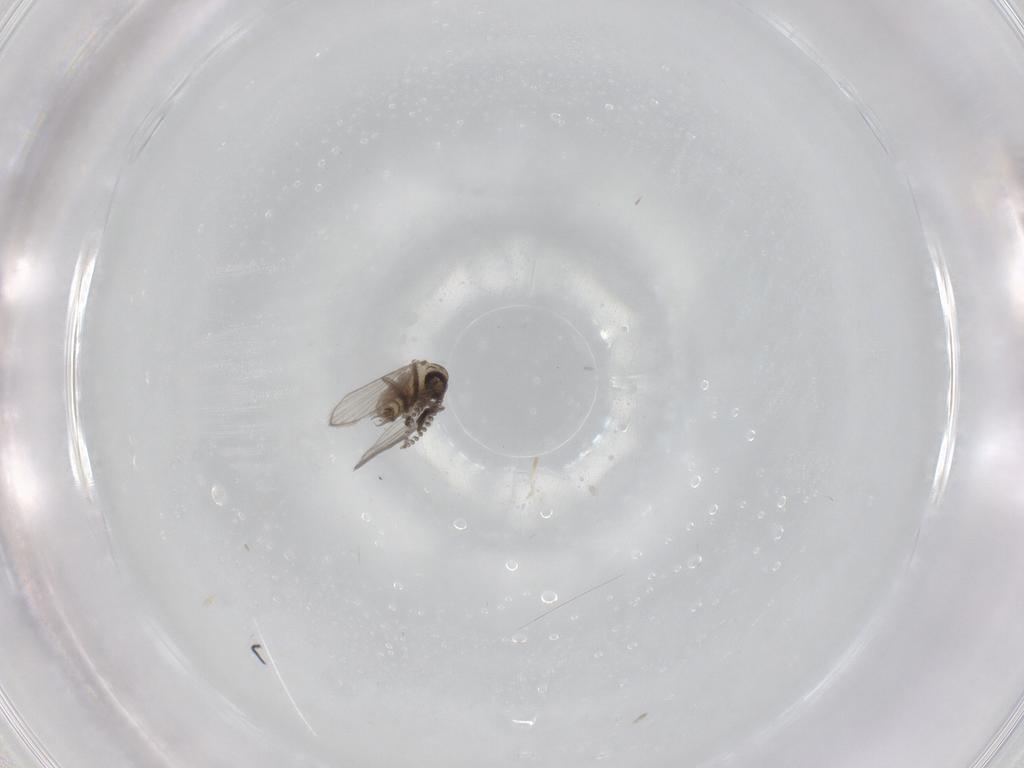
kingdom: Animalia
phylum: Arthropoda
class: Insecta
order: Diptera
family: Psychodidae
